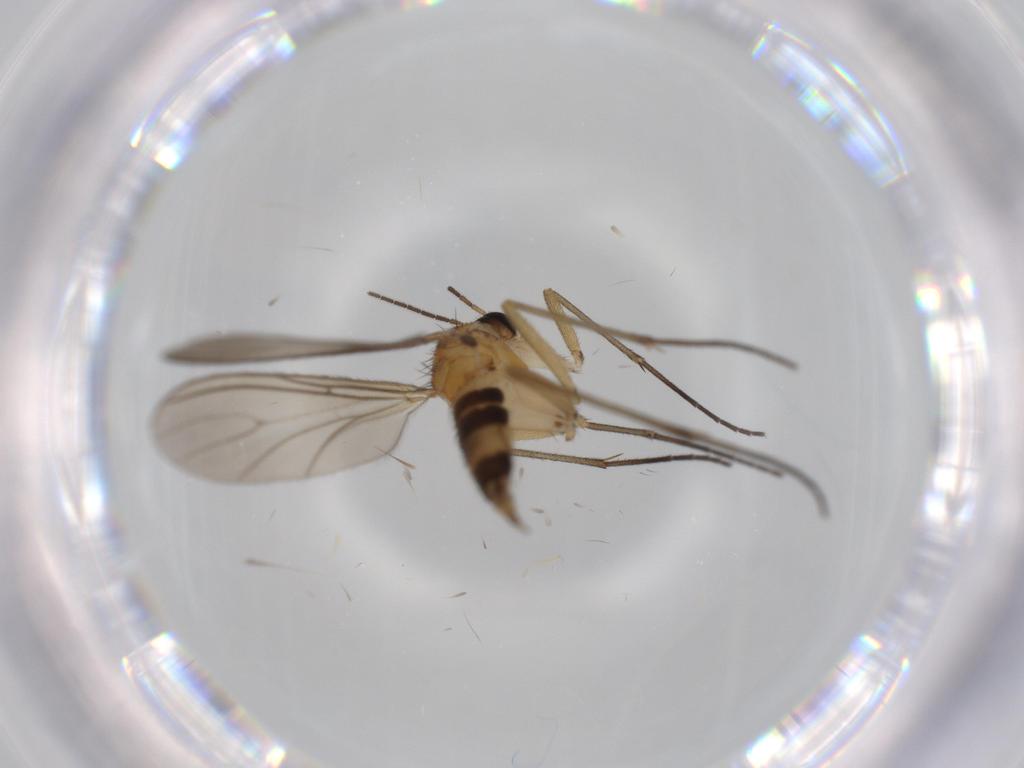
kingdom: Animalia
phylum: Arthropoda
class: Insecta
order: Diptera
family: Sciaridae
